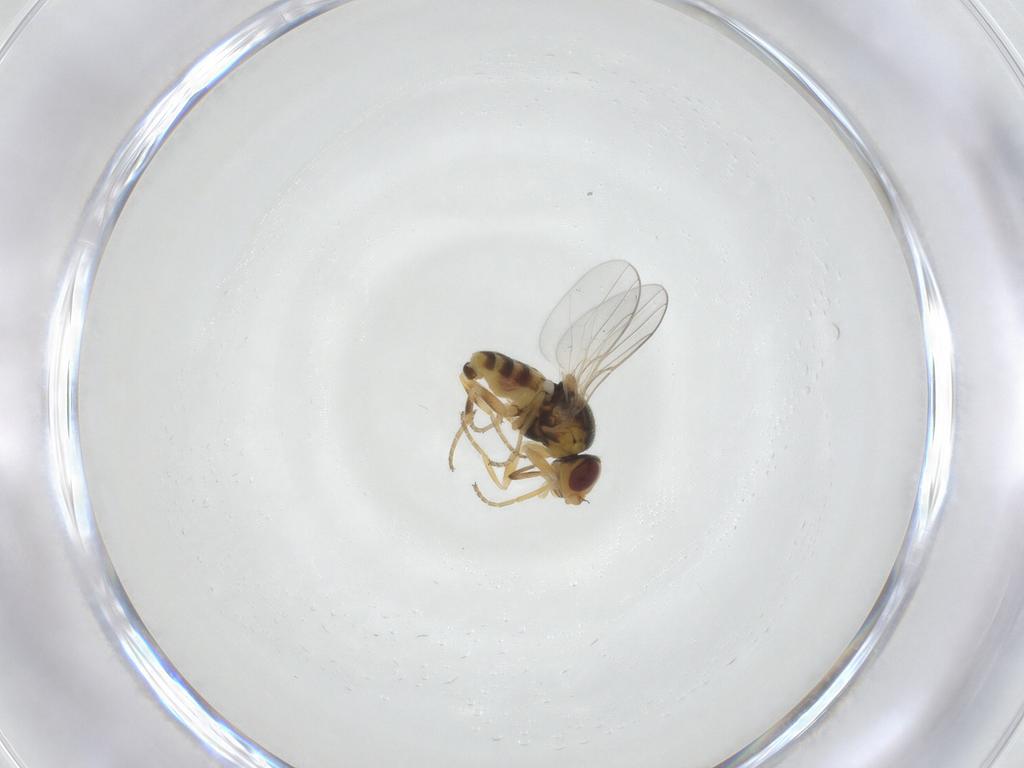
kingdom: Animalia
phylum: Arthropoda
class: Insecta
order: Diptera
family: Chloropidae
